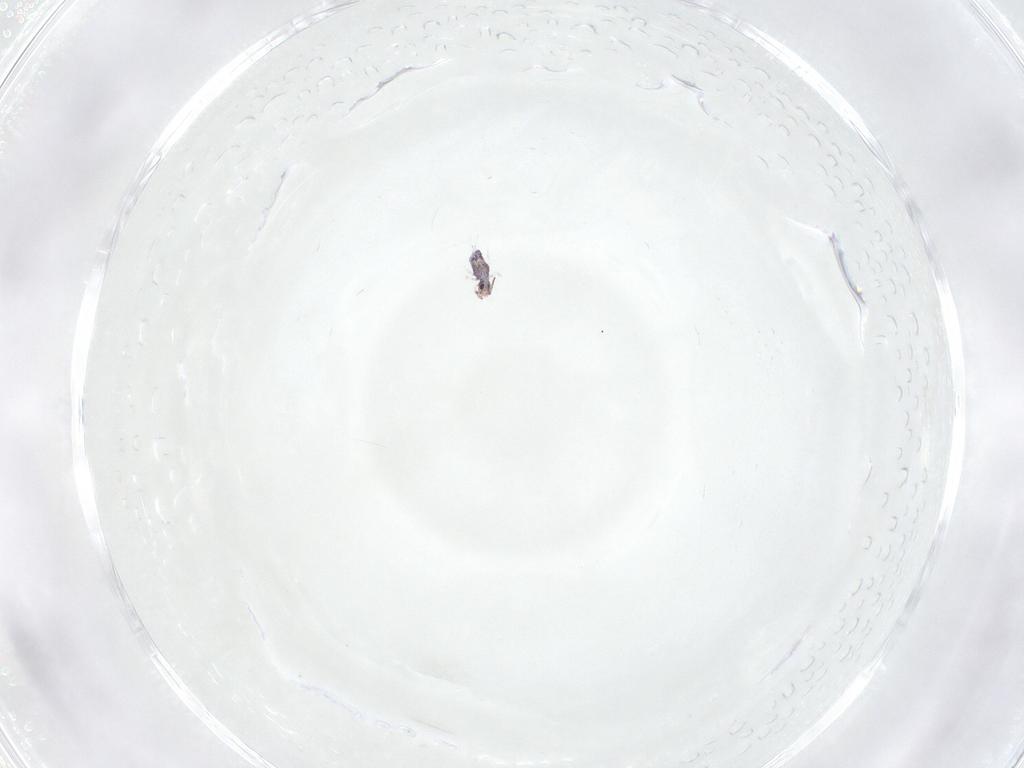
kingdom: Animalia
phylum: Arthropoda
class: Collembola
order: Symphypleona
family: Bourletiellidae
